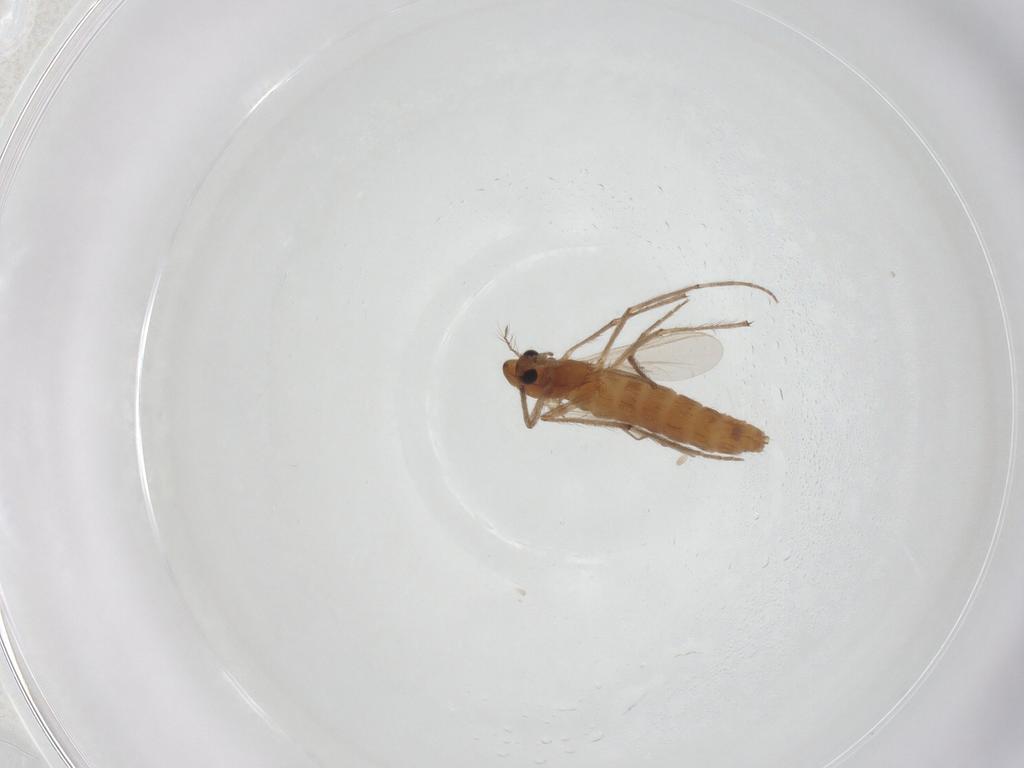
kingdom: Animalia
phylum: Arthropoda
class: Insecta
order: Diptera
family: Chironomidae
